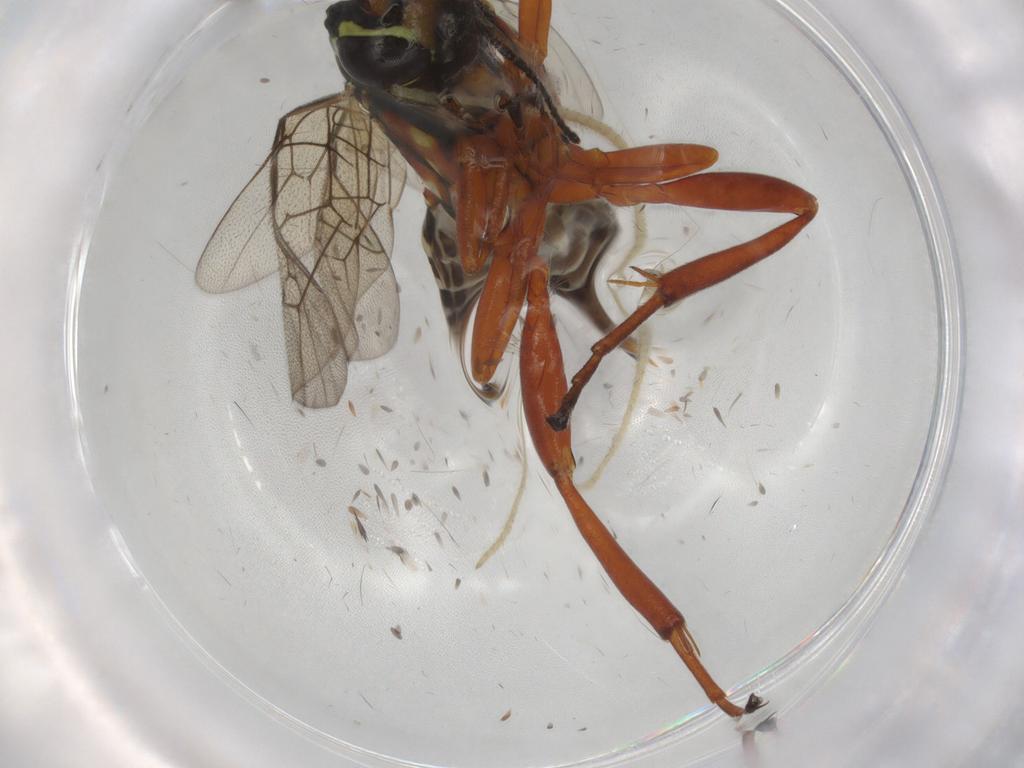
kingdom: Animalia
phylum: Arthropoda
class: Insecta
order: Hymenoptera
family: Ichneumonidae
